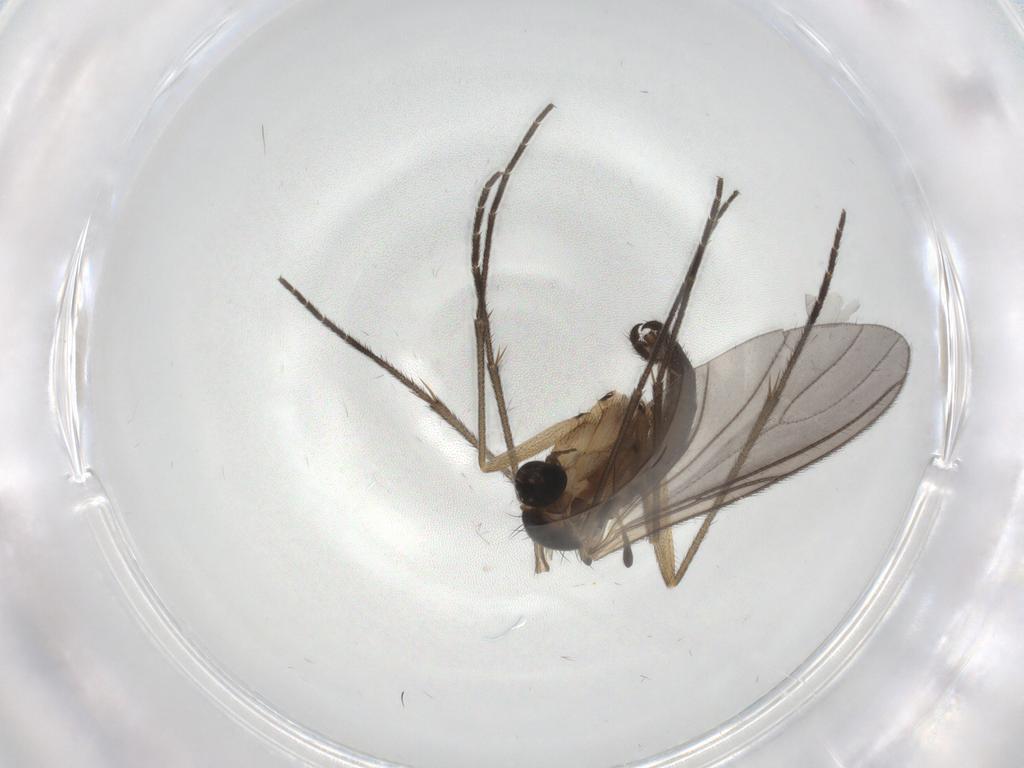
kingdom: Animalia
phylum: Arthropoda
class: Insecta
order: Diptera
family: Sciaridae
